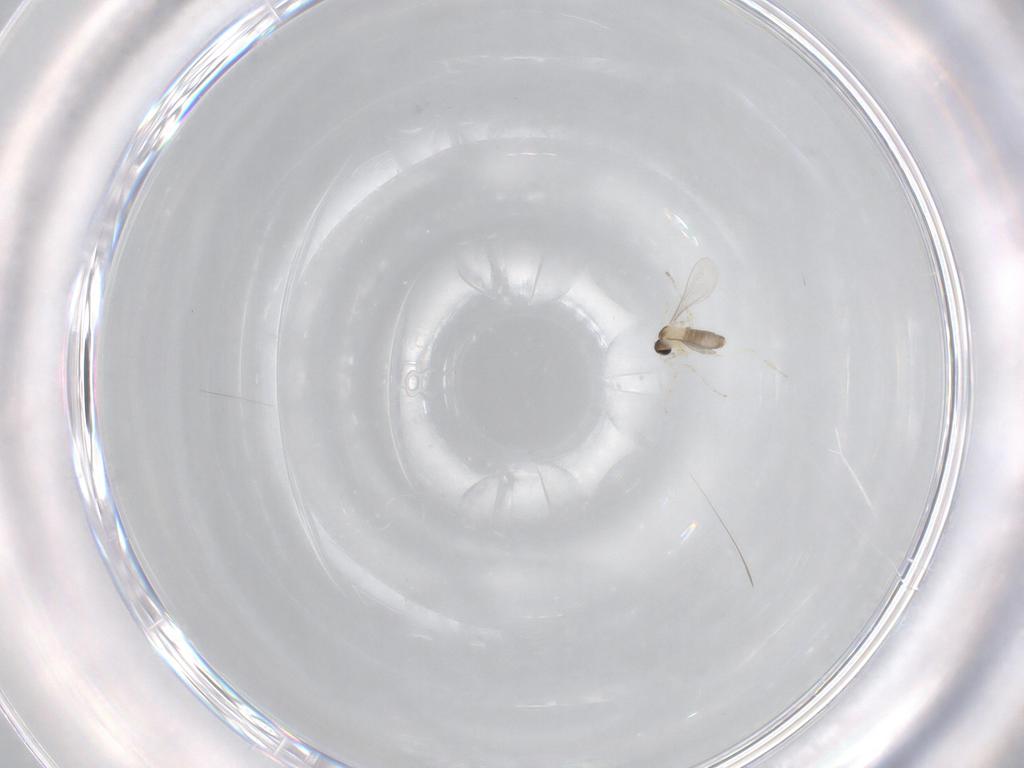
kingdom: Animalia
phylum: Arthropoda
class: Insecta
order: Diptera
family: Cecidomyiidae
